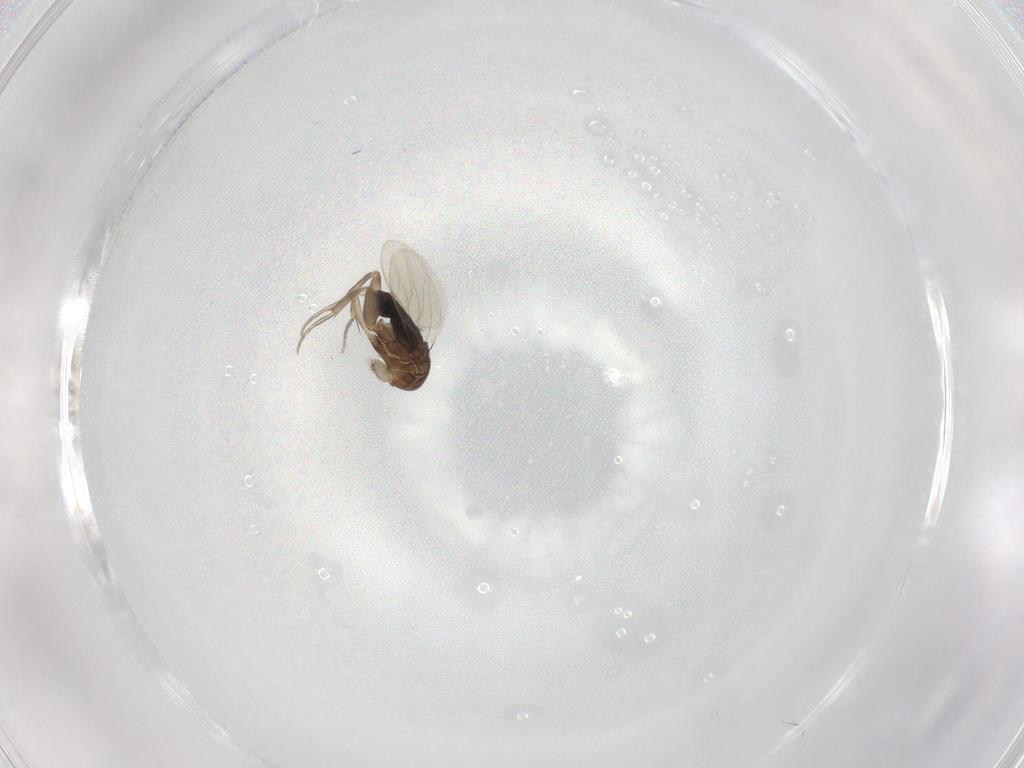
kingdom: Animalia
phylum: Arthropoda
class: Insecta
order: Diptera
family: Phoridae
